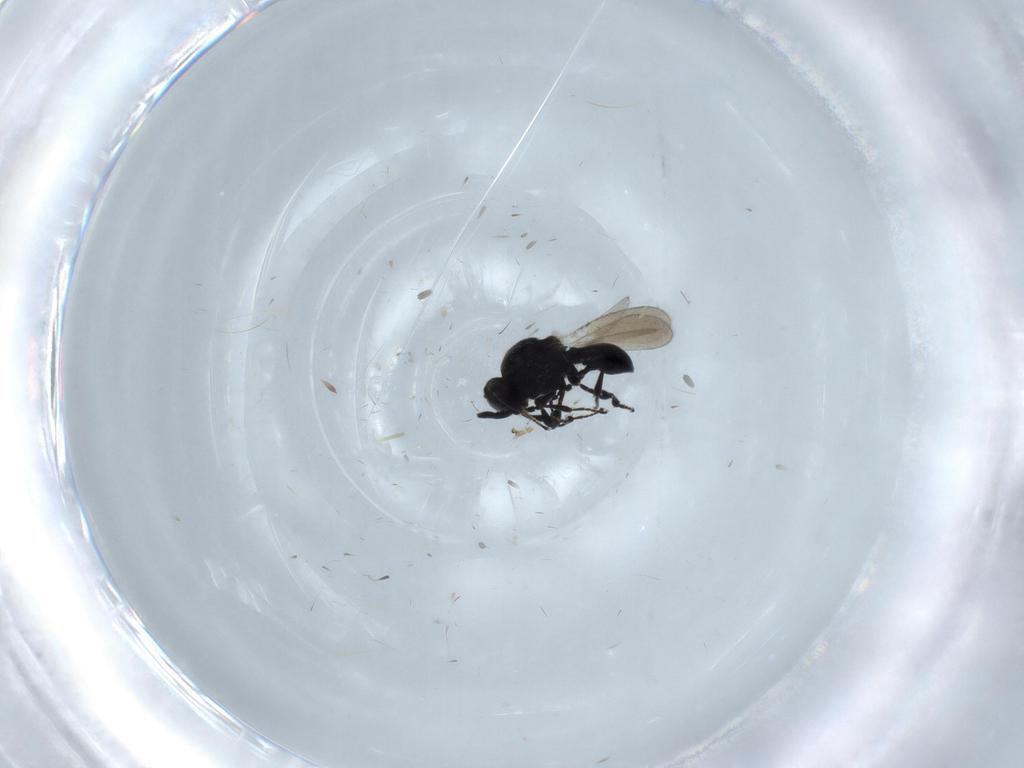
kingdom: Animalia
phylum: Arthropoda
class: Insecta
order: Hymenoptera
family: Platygastridae
